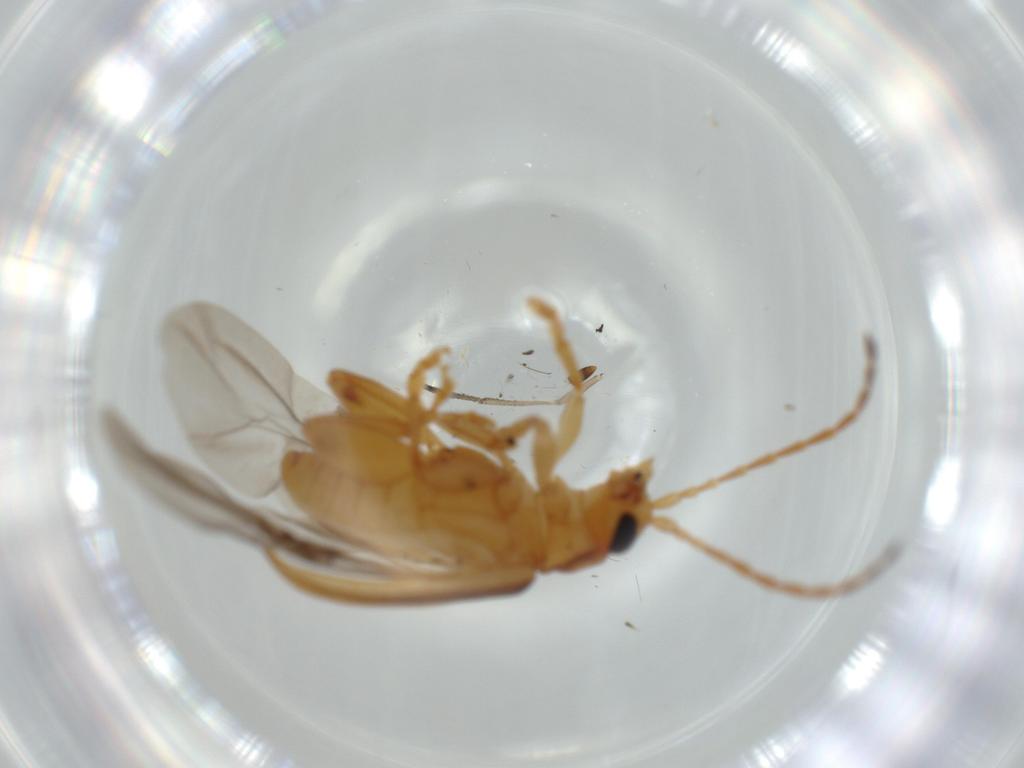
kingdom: Animalia
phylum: Arthropoda
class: Insecta
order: Coleoptera
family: Chrysomelidae
